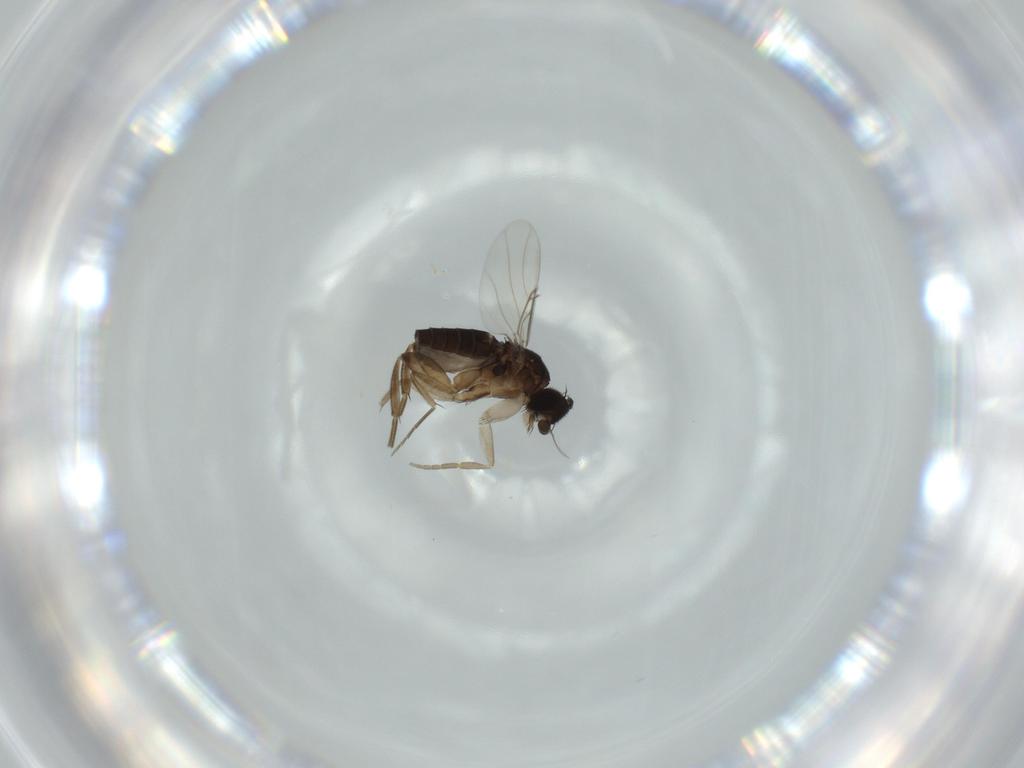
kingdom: Animalia
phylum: Arthropoda
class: Insecta
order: Diptera
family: Phoridae
